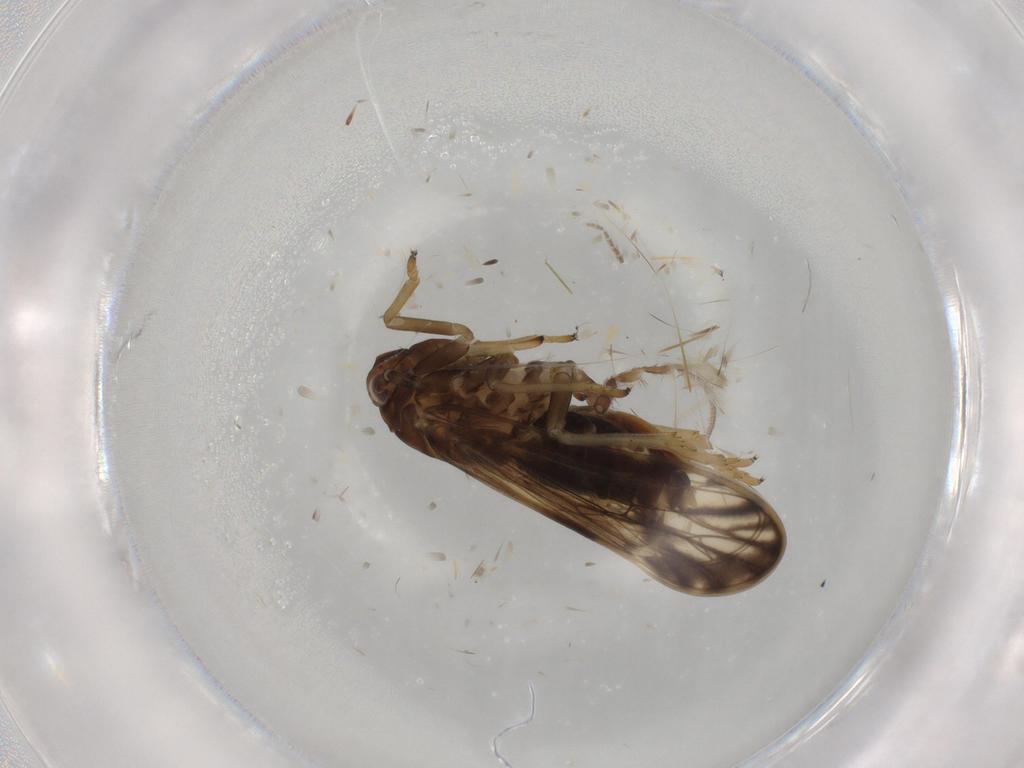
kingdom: Animalia
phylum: Arthropoda
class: Insecta
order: Hemiptera
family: Delphacidae
